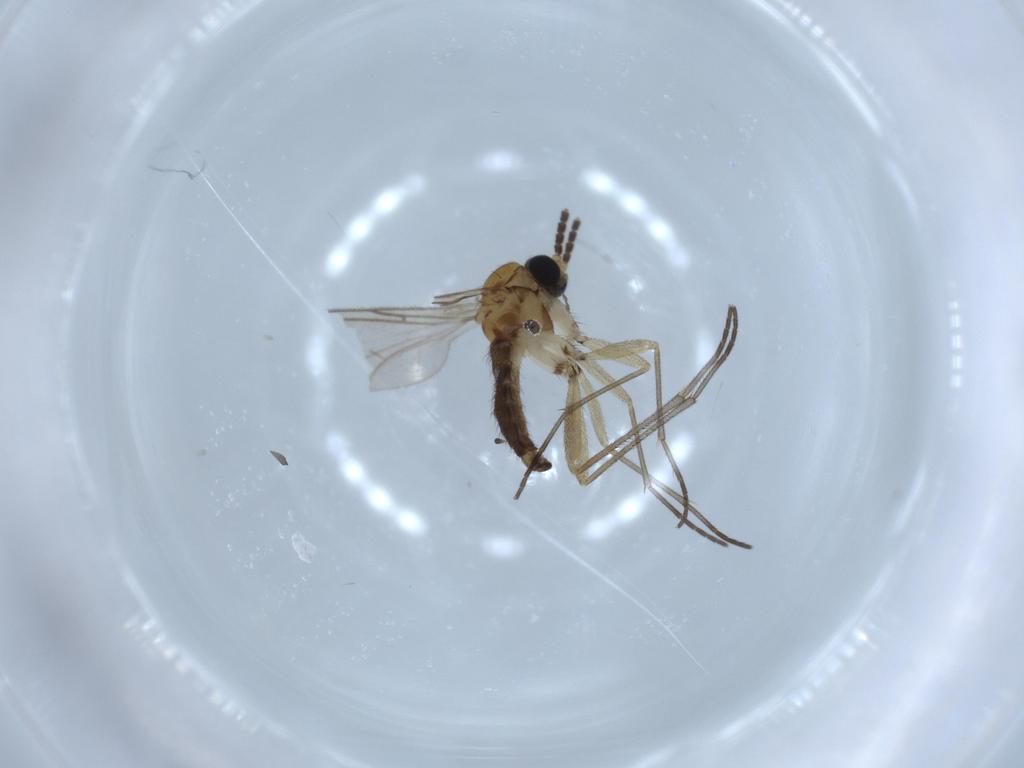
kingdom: Animalia
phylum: Arthropoda
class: Insecta
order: Diptera
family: Sciaridae
